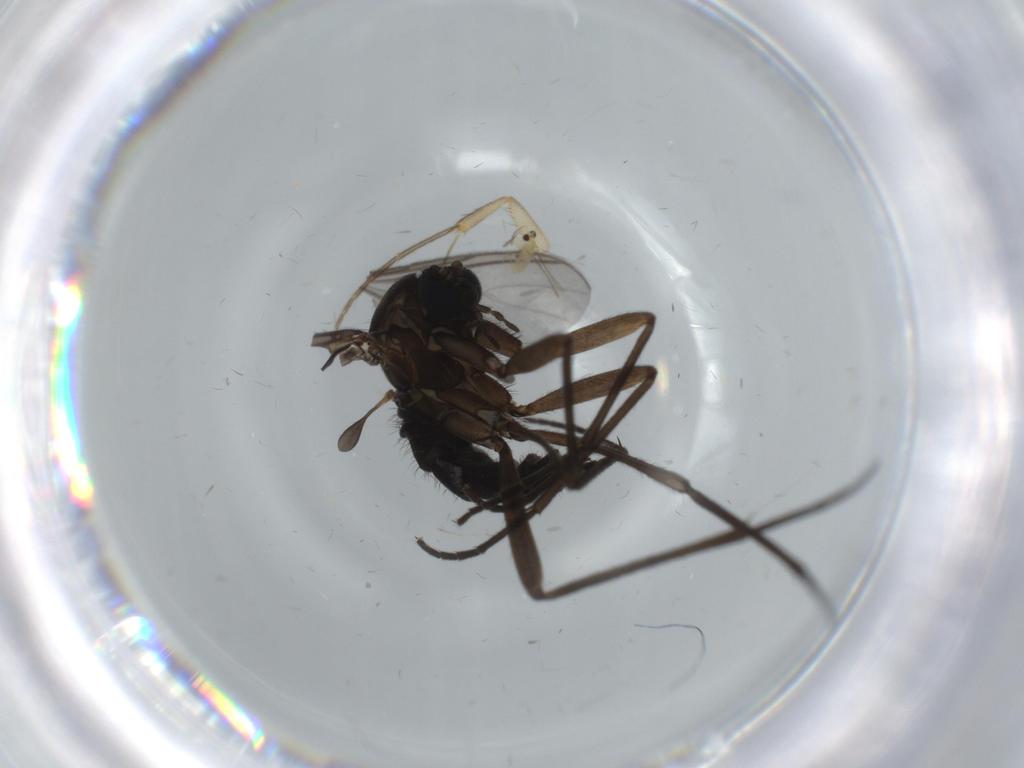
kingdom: Animalia
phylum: Arthropoda
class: Insecta
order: Diptera
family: Sciaridae
